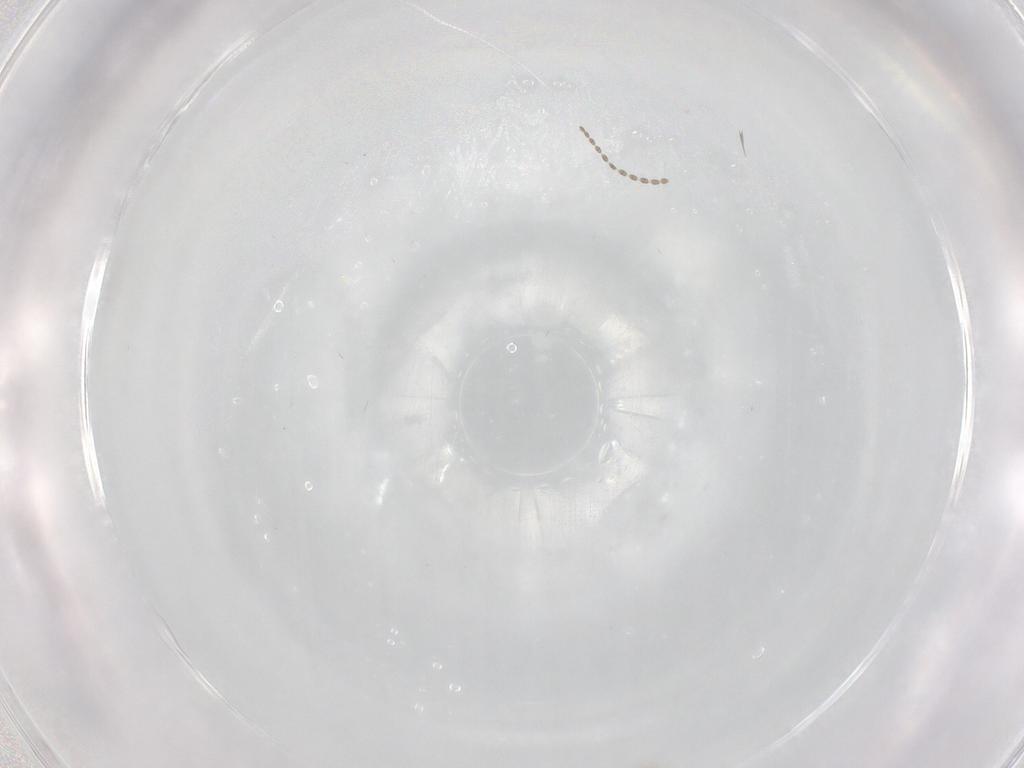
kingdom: Animalia
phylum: Arthropoda
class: Insecta
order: Diptera
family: Cecidomyiidae
